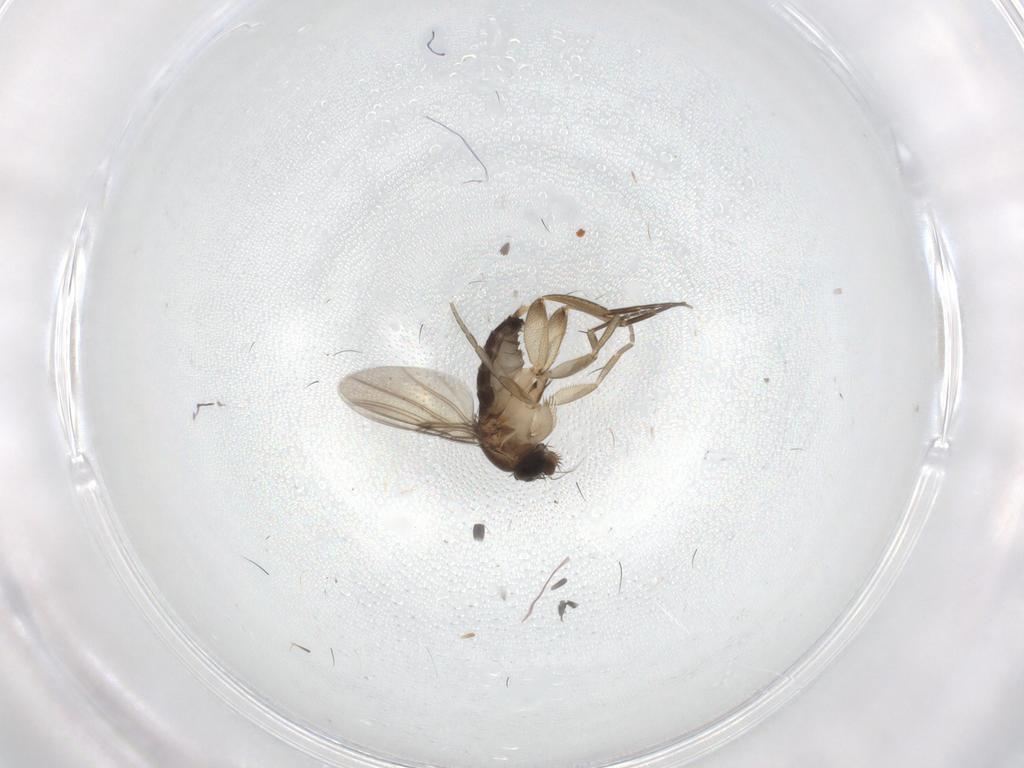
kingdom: Animalia
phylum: Arthropoda
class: Insecta
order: Diptera
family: Phoridae
